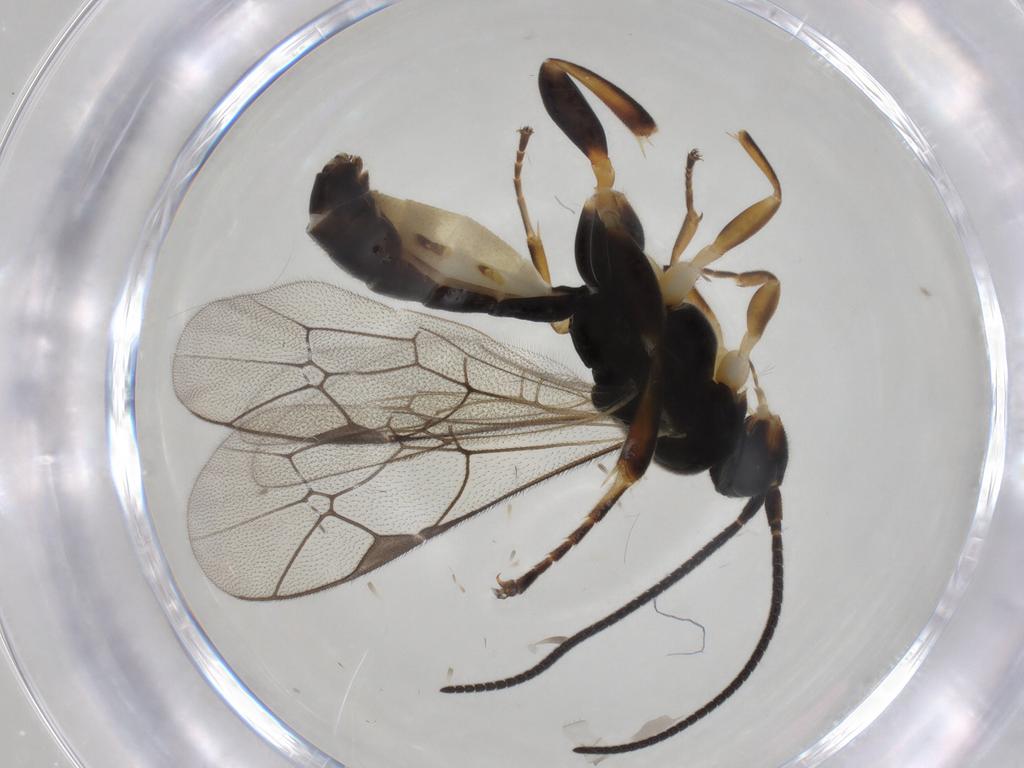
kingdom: Animalia
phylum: Arthropoda
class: Insecta
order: Hymenoptera
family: Ichneumonidae
